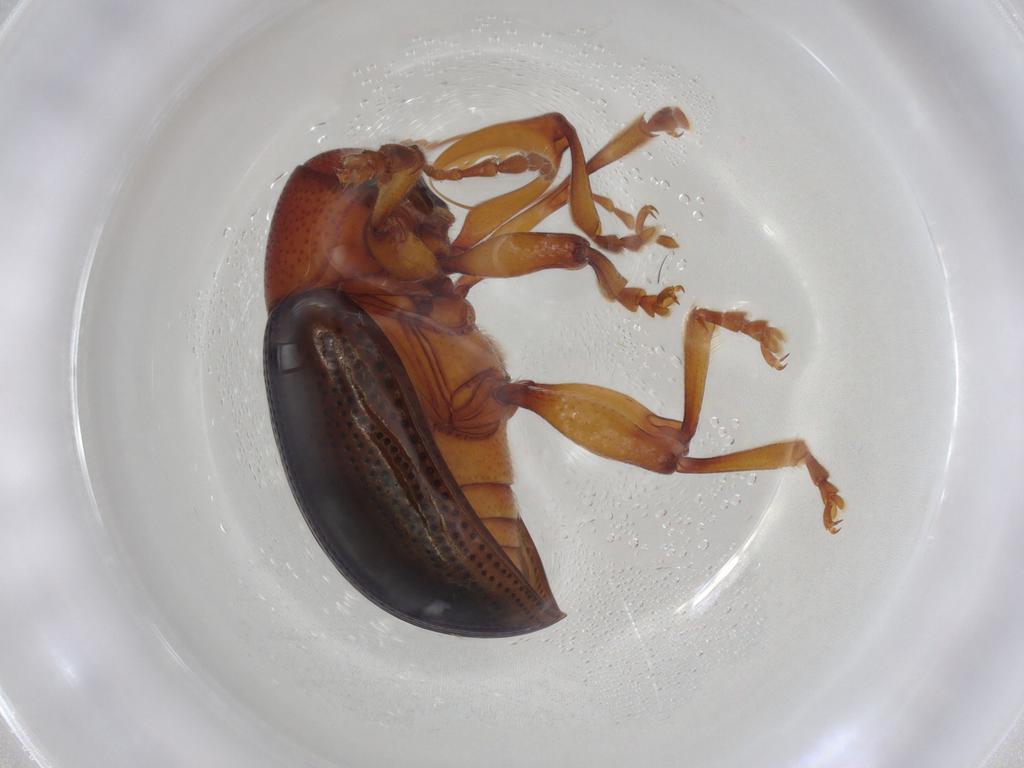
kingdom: Animalia
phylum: Arthropoda
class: Insecta
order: Coleoptera
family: Chrysomelidae
